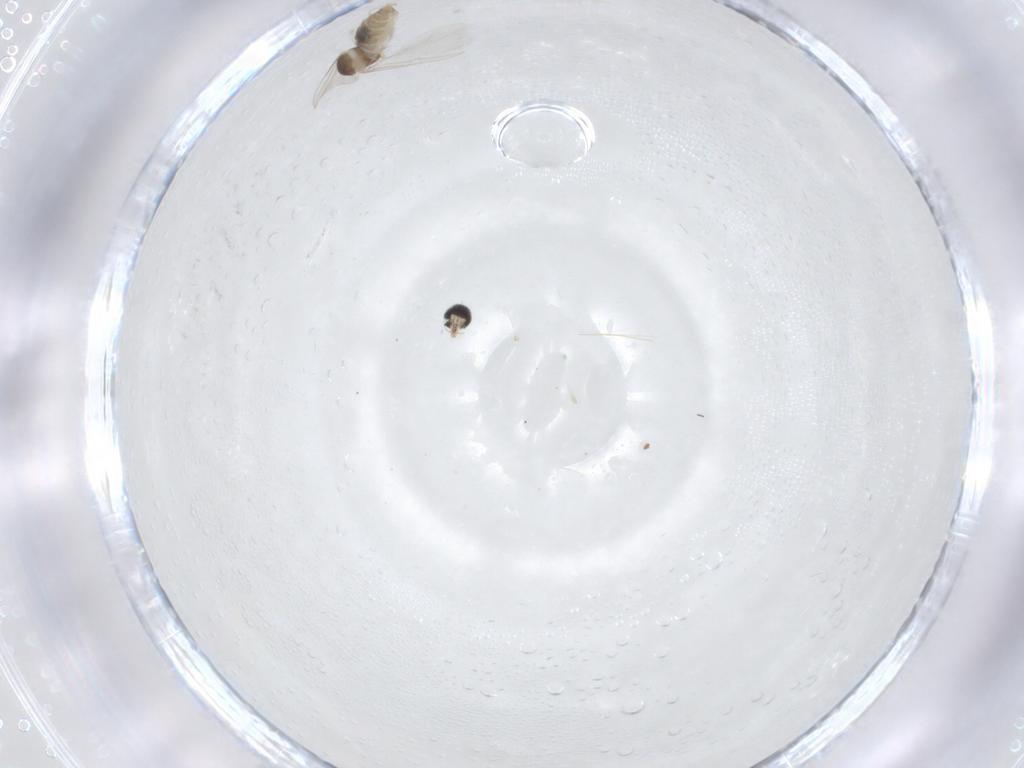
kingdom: Animalia
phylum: Arthropoda
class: Insecta
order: Diptera
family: Cecidomyiidae
